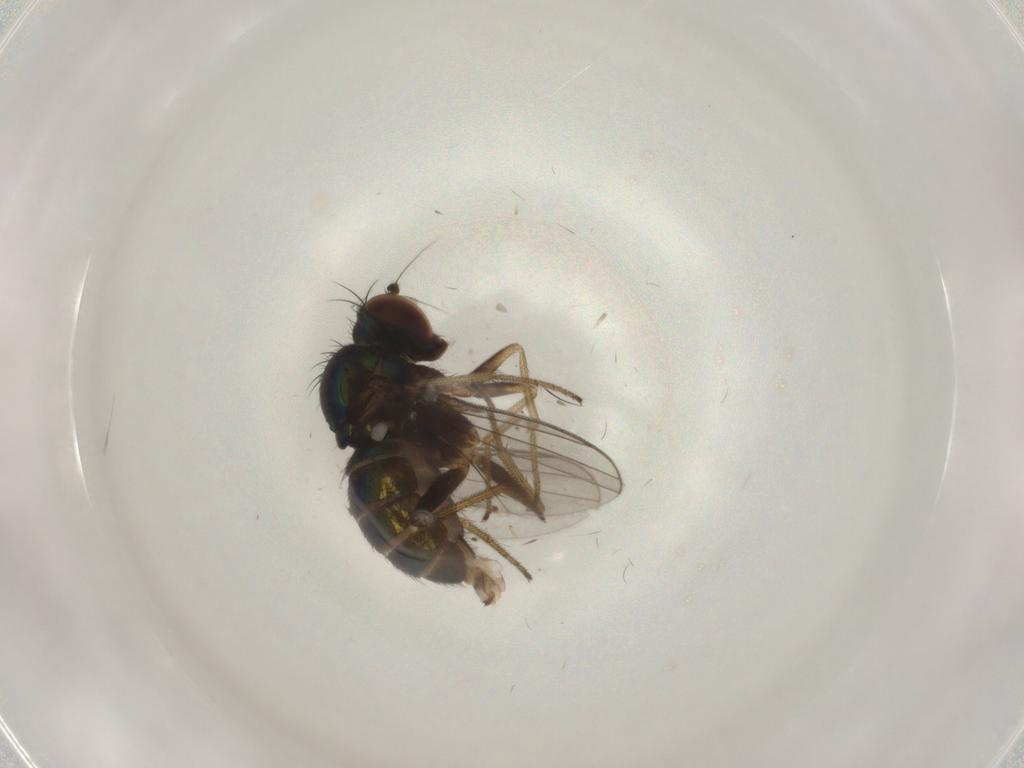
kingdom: Animalia
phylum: Arthropoda
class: Insecta
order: Diptera
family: Dolichopodidae
